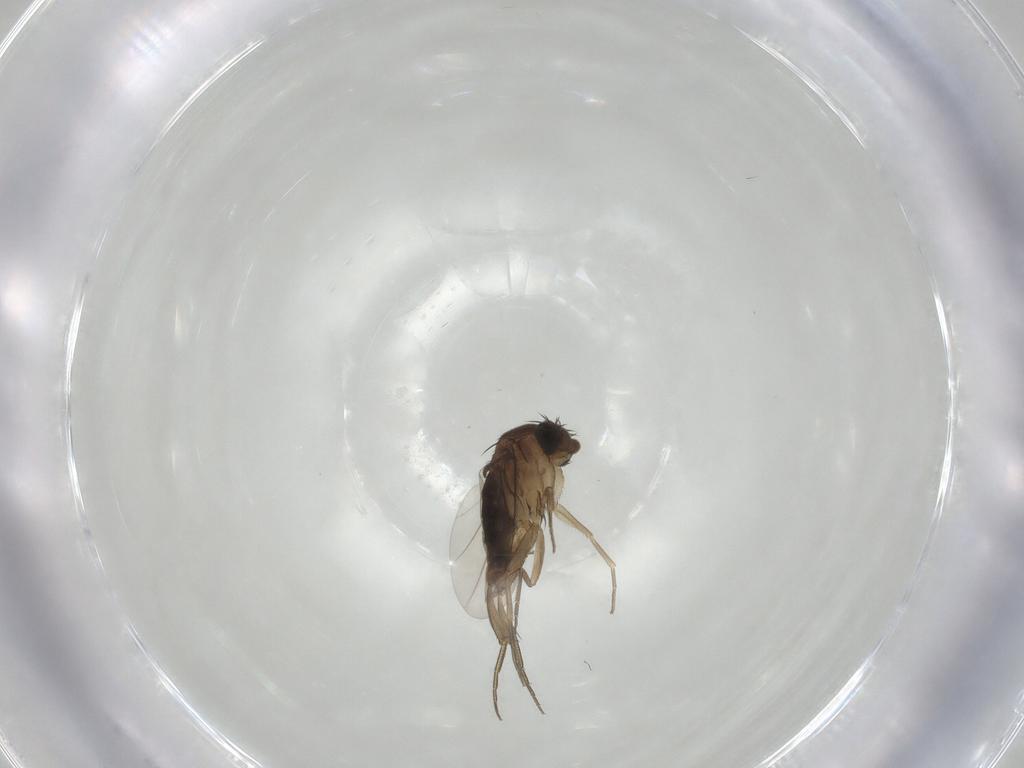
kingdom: Animalia
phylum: Arthropoda
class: Insecta
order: Diptera
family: Phoridae
